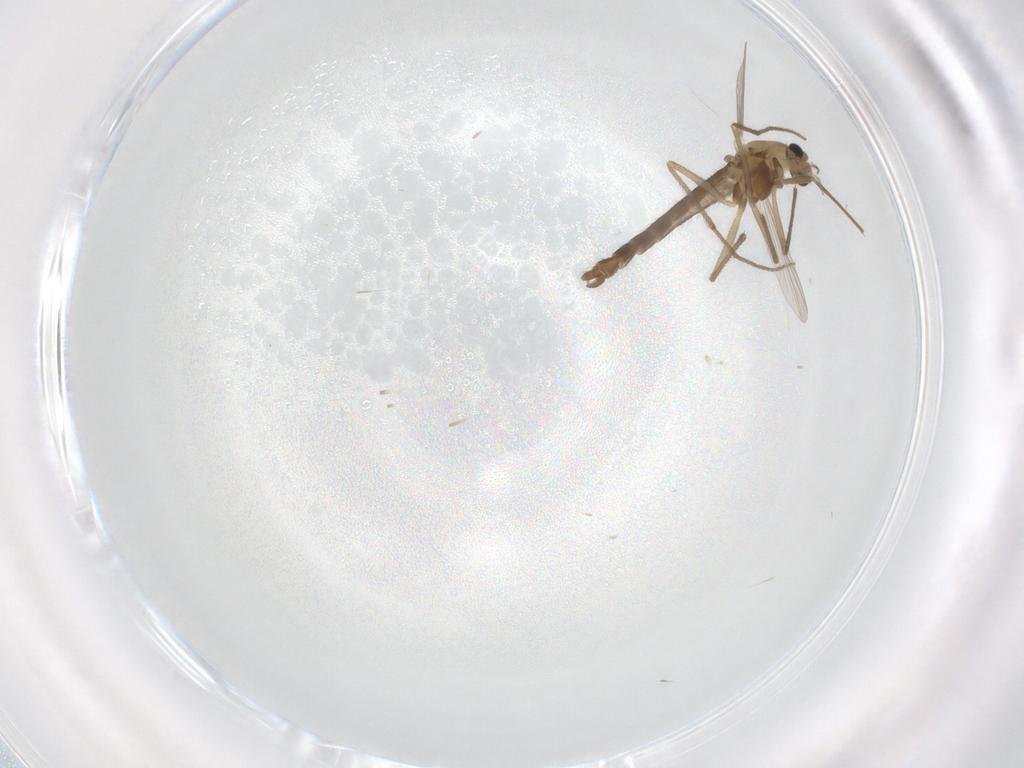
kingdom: Animalia
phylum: Arthropoda
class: Insecta
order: Diptera
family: Chironomidae
